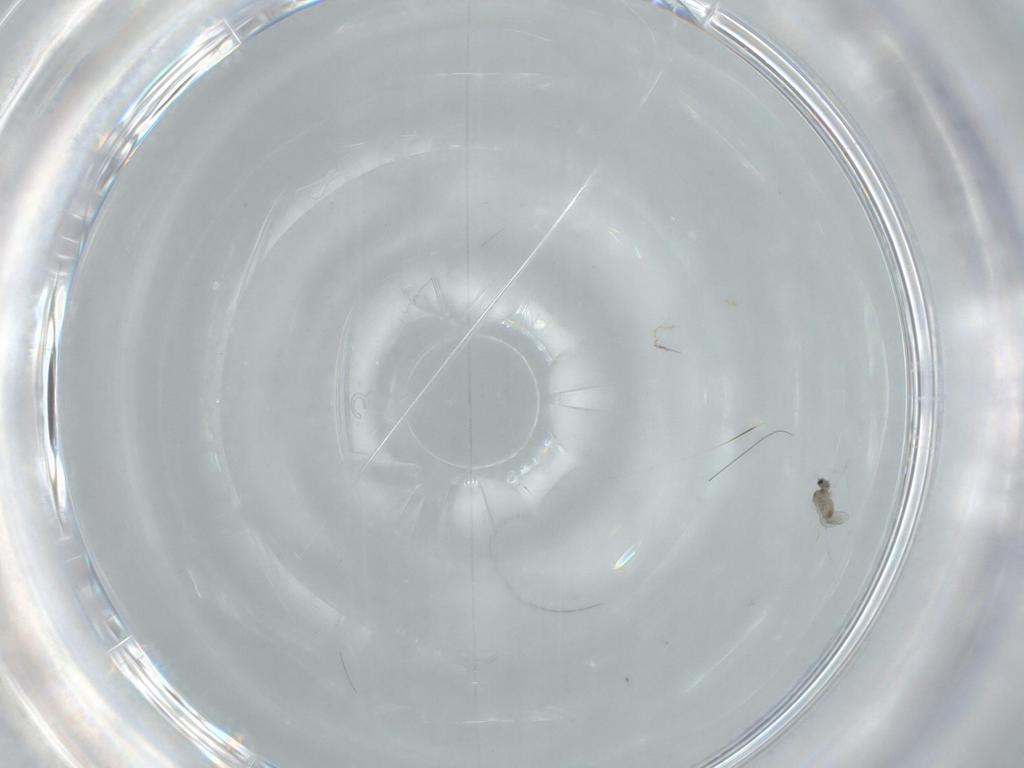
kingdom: Animalia
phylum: Arthropoda
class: Insecta
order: Diptera
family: Cecidomyiidae
